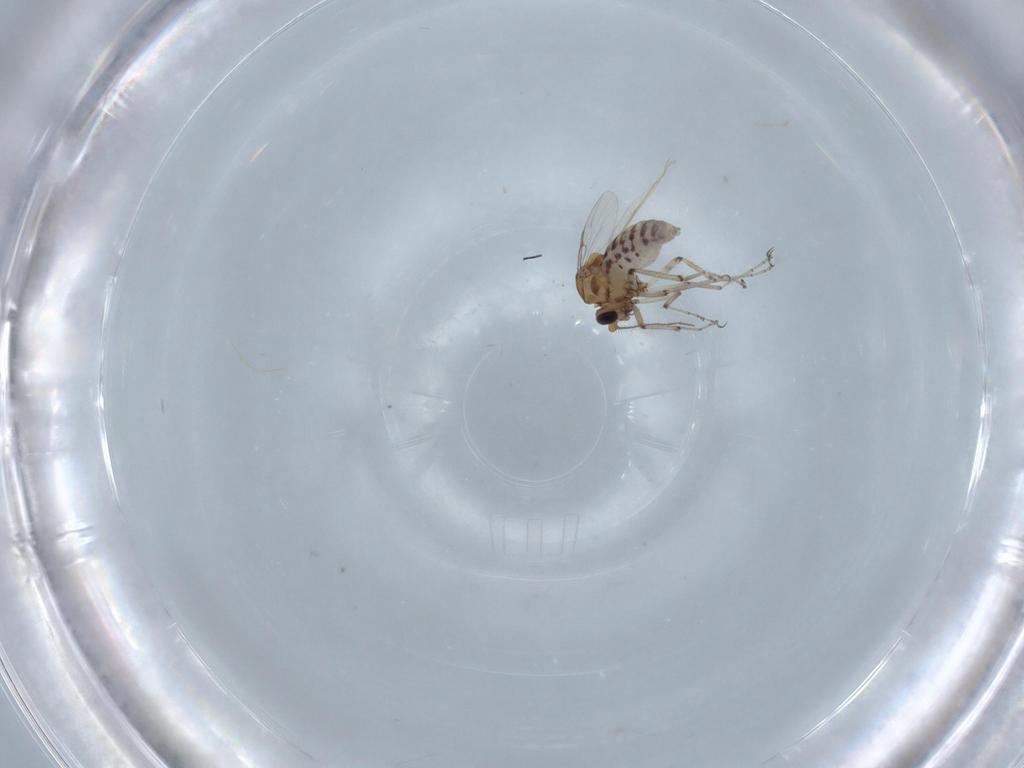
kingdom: Animalia
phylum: Arthropoda
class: Insecta
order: Diptera
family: Ceratopogonidae
